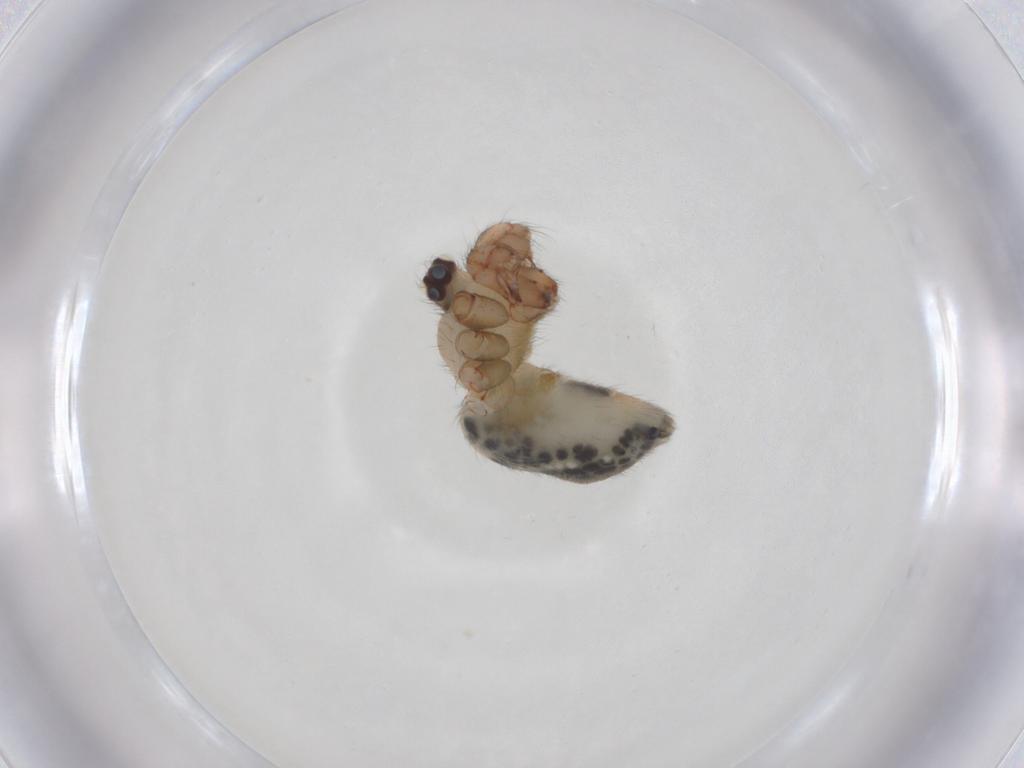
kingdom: Animalia
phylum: Arthropoda
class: Arachnida
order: Araneae
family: Pholcidae
